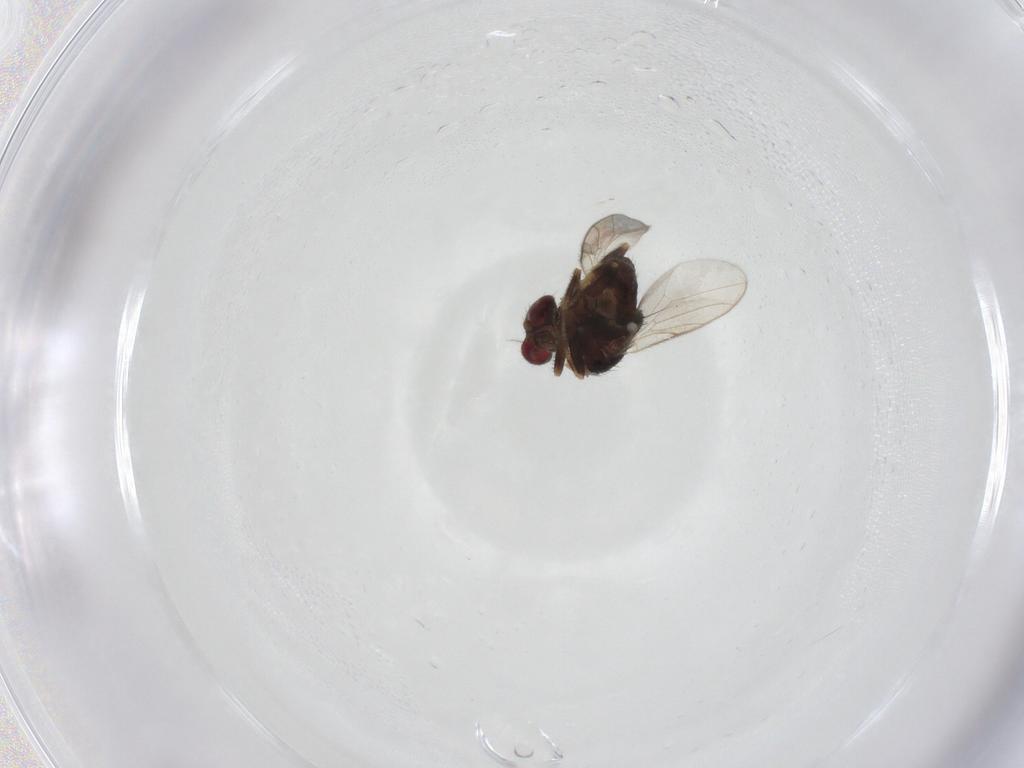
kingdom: Animalia
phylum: Arthropoda
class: Insecta
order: Diptera
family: Chloropidae
